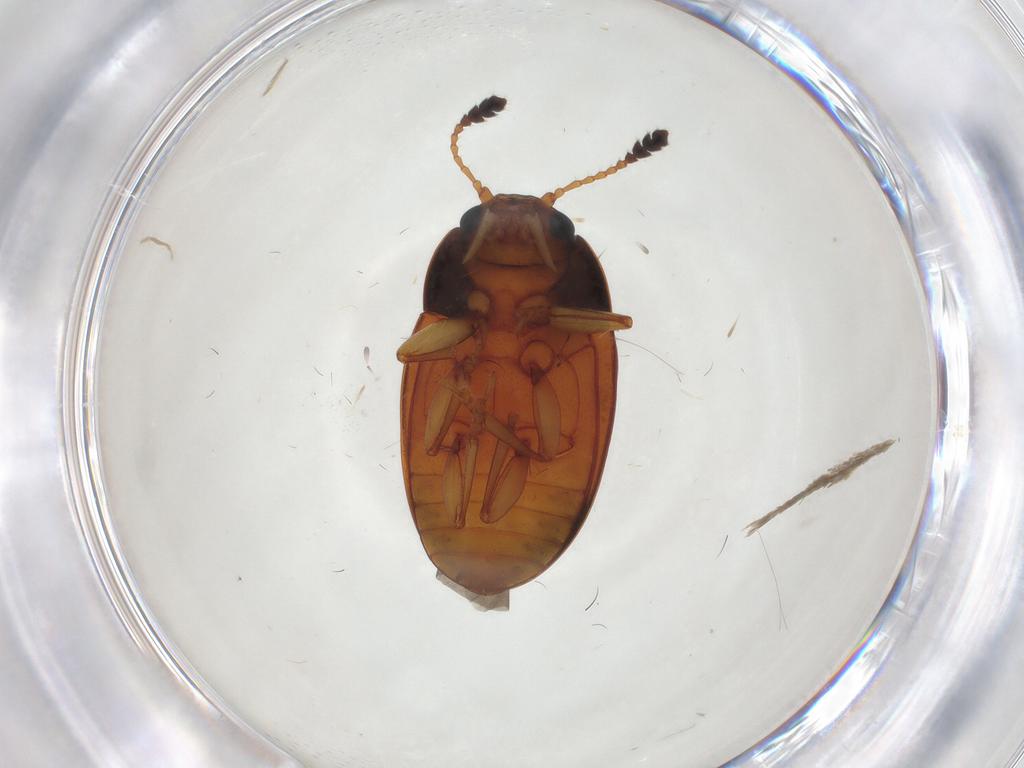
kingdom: Animalia
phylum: Arthropoda
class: Insecta
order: Coleoptera
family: Erotylidae
